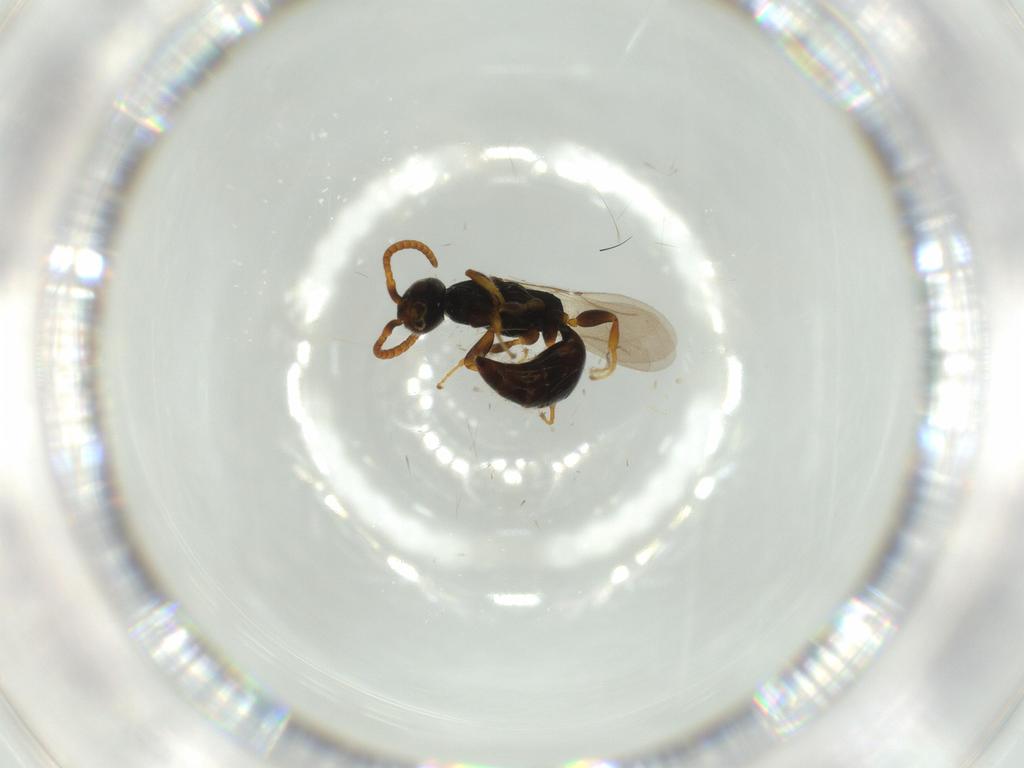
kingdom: Animalia
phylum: Arthropoda
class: Insecta
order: Hymenoptera
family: Bethylidae
